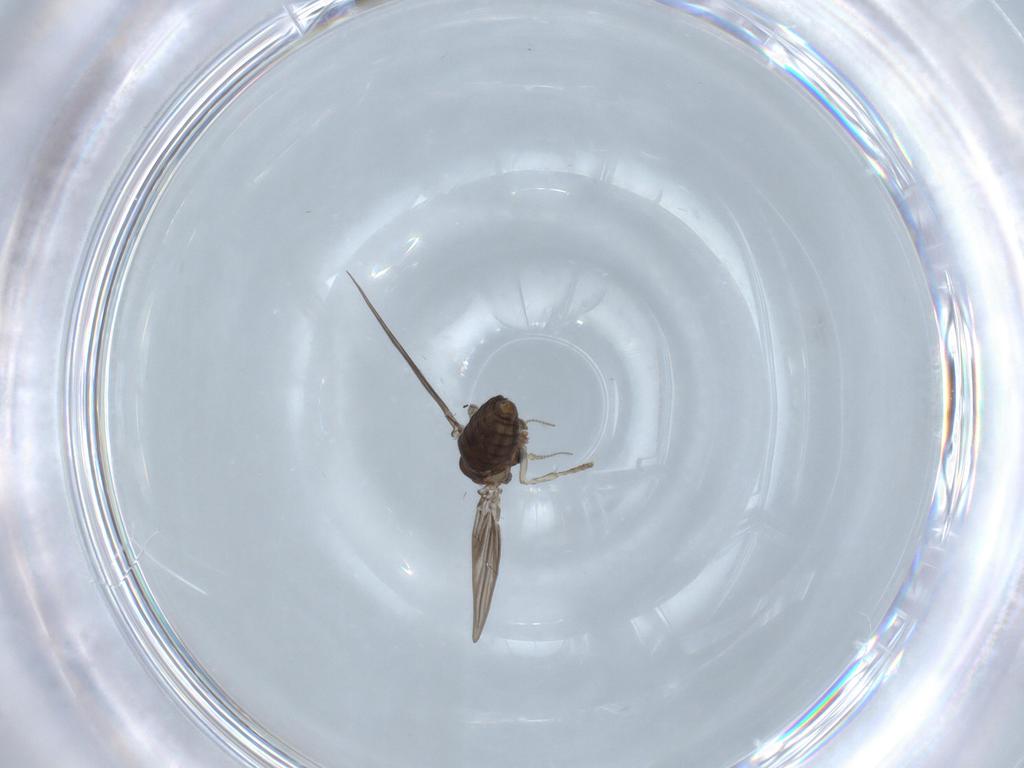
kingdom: Animalia
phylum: Arthropoda
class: Insecta
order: Diptera
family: Psychodidae
